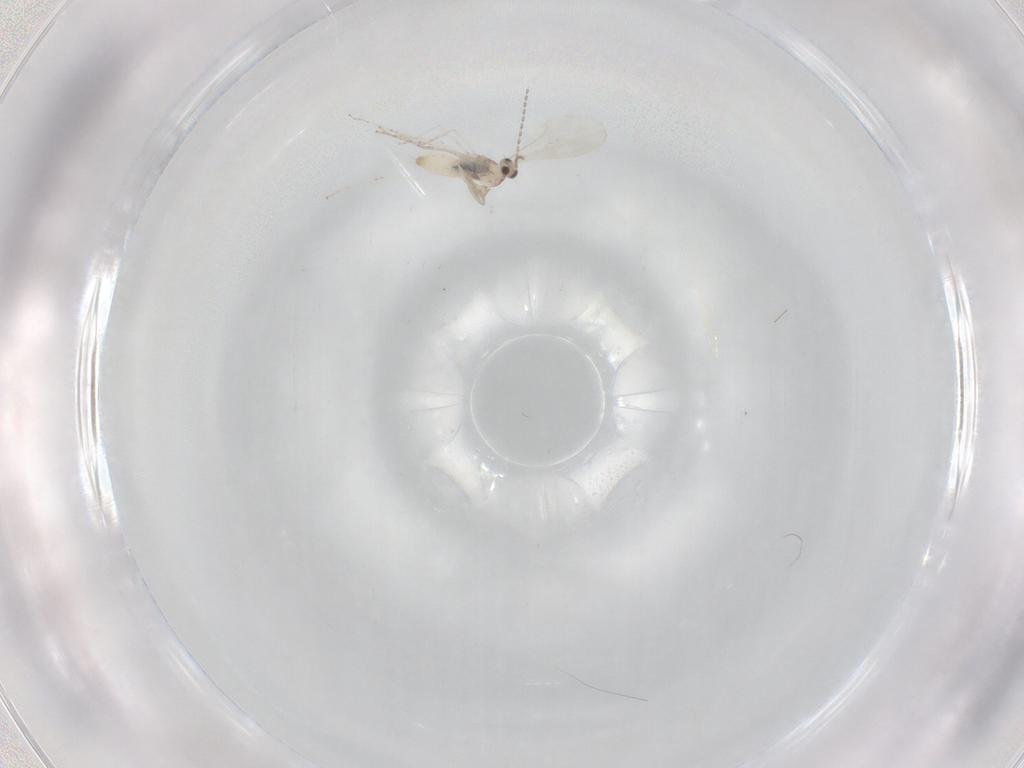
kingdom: Animalia
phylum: Arthropoda
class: Insecta
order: Diptera
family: Cecidomyiidae
